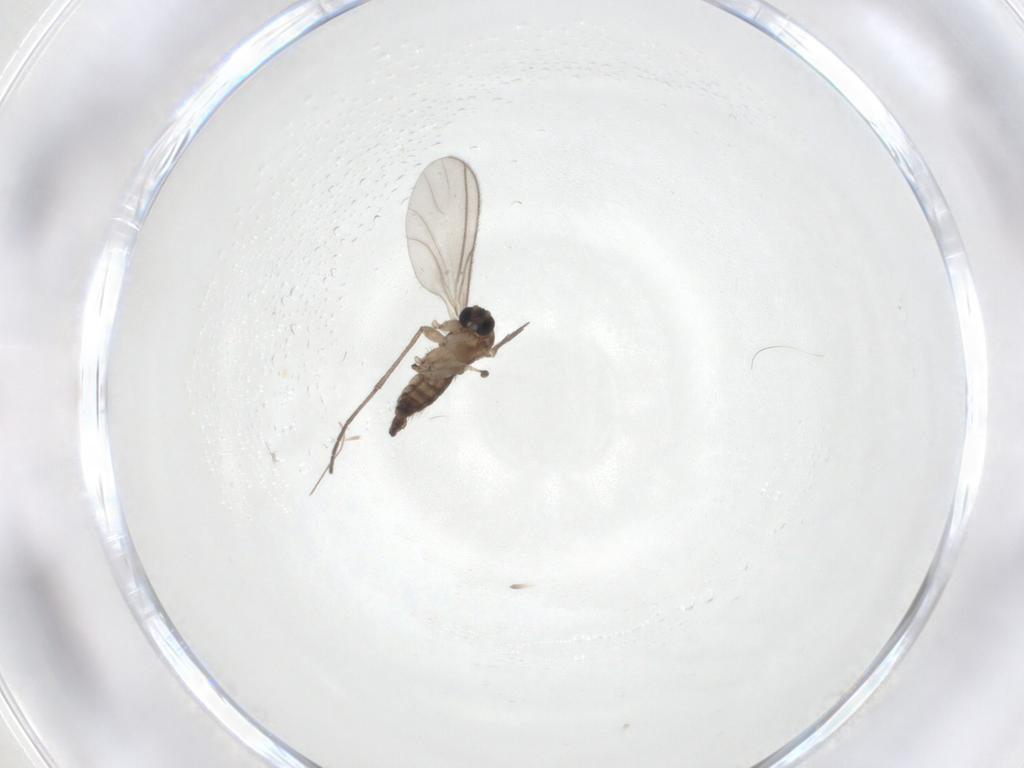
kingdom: Animalia
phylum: Arthropoda
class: Insecta
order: Diptera
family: Sciaridae
